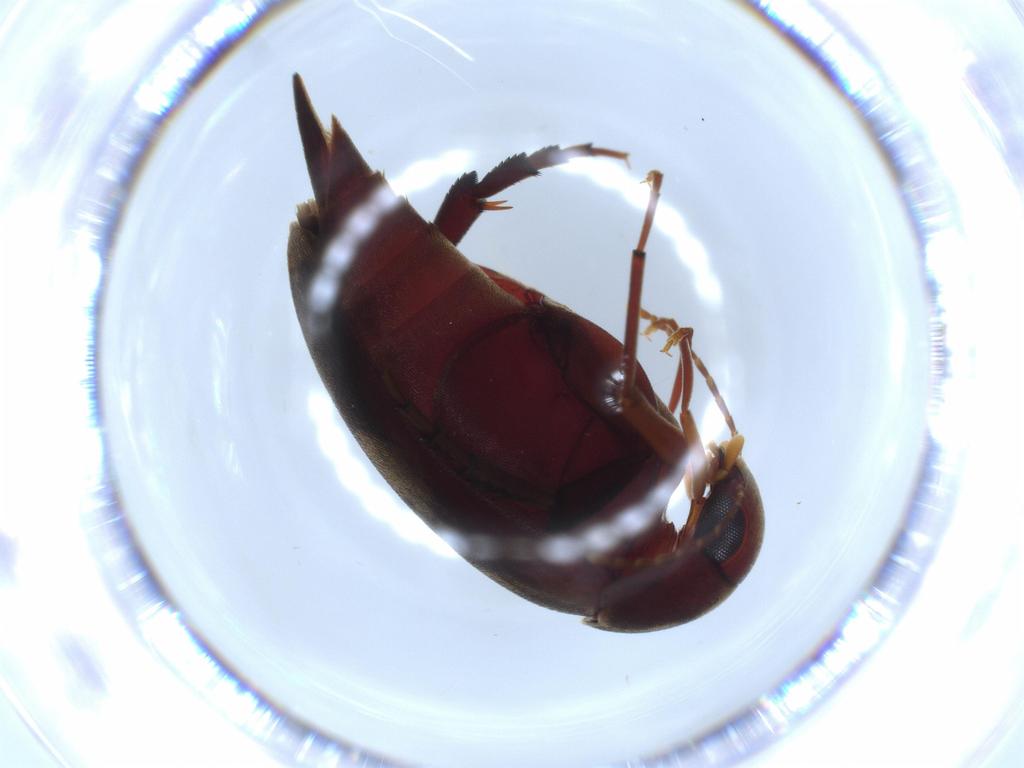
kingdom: Animalia
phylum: Arthropoda
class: Insecta
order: Coleoptera
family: Mordellidae
